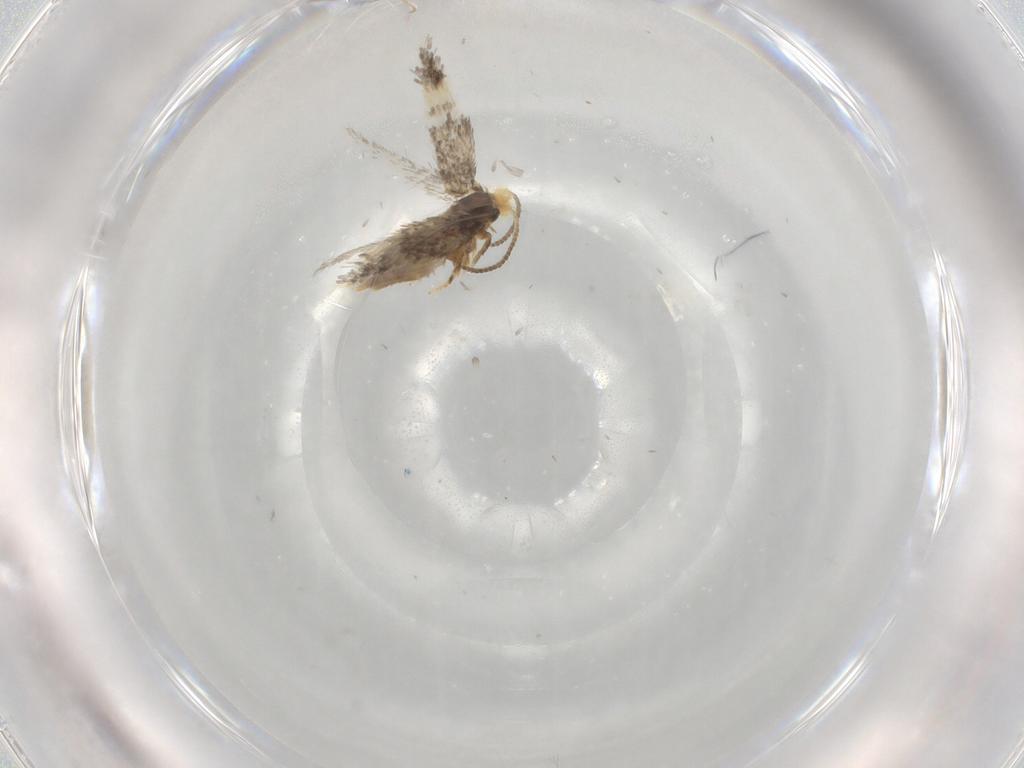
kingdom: Animalia
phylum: Arthropoda
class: Insecta
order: Lepidoptera
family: Nepticulidae
